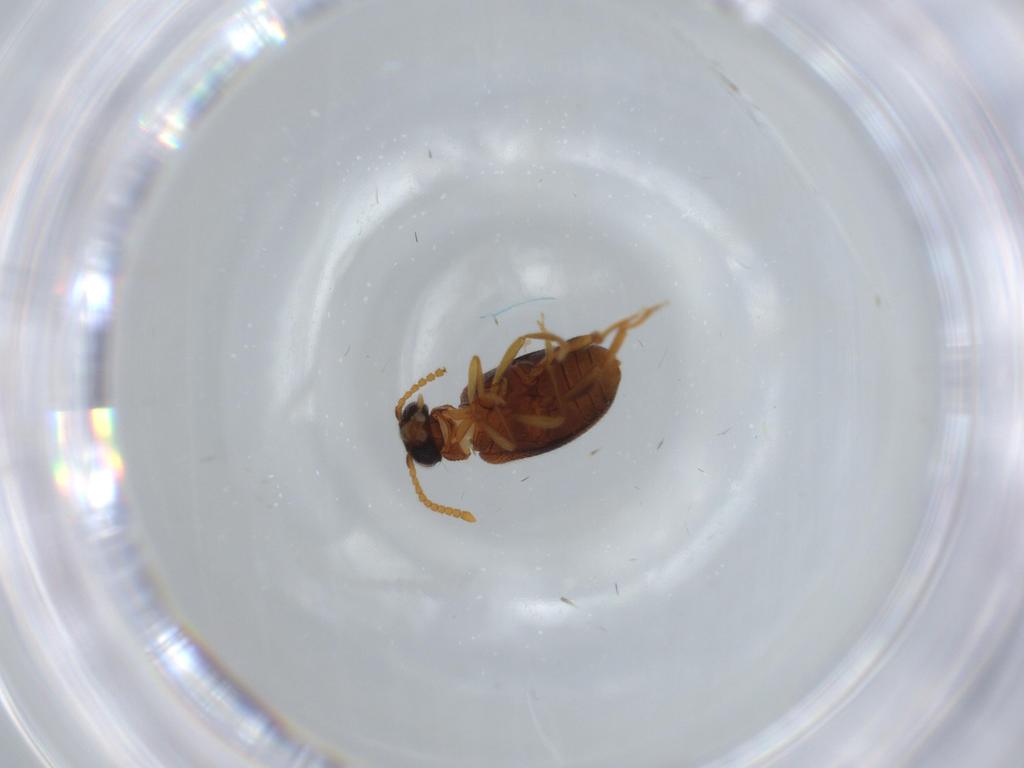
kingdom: Animalia
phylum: Arthropoda
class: Insecta
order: Coleoptera
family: Aderidae
